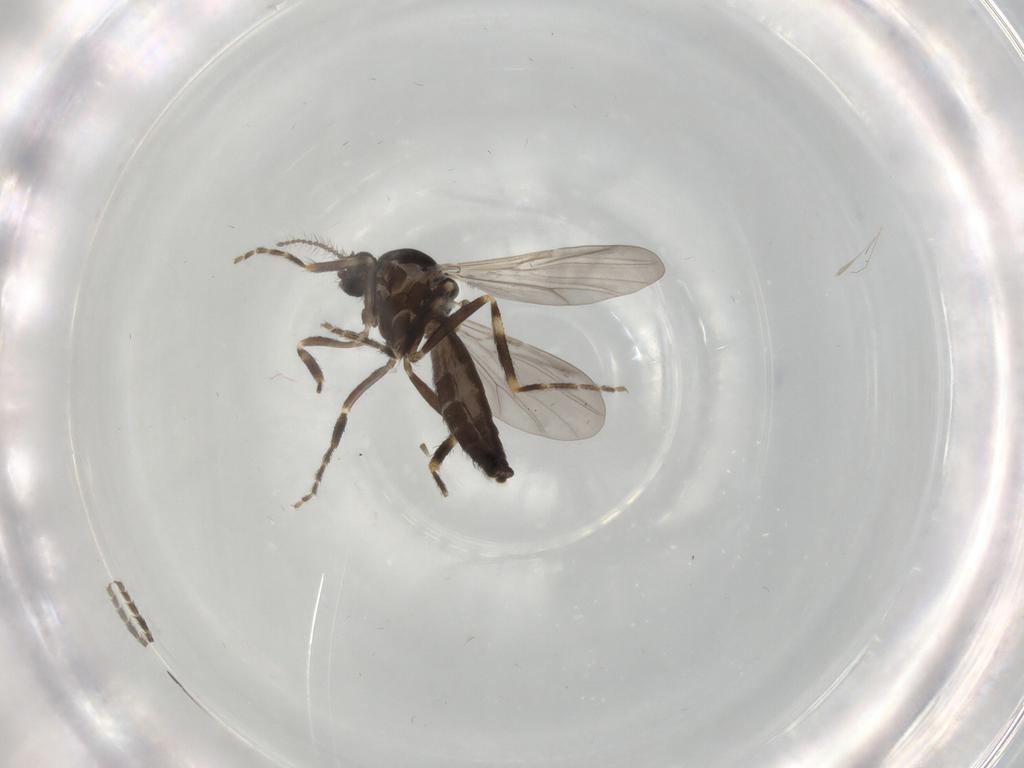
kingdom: Animalia
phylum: Arthropoda
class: Insecta
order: Diptera
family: Ceratopogonidae
